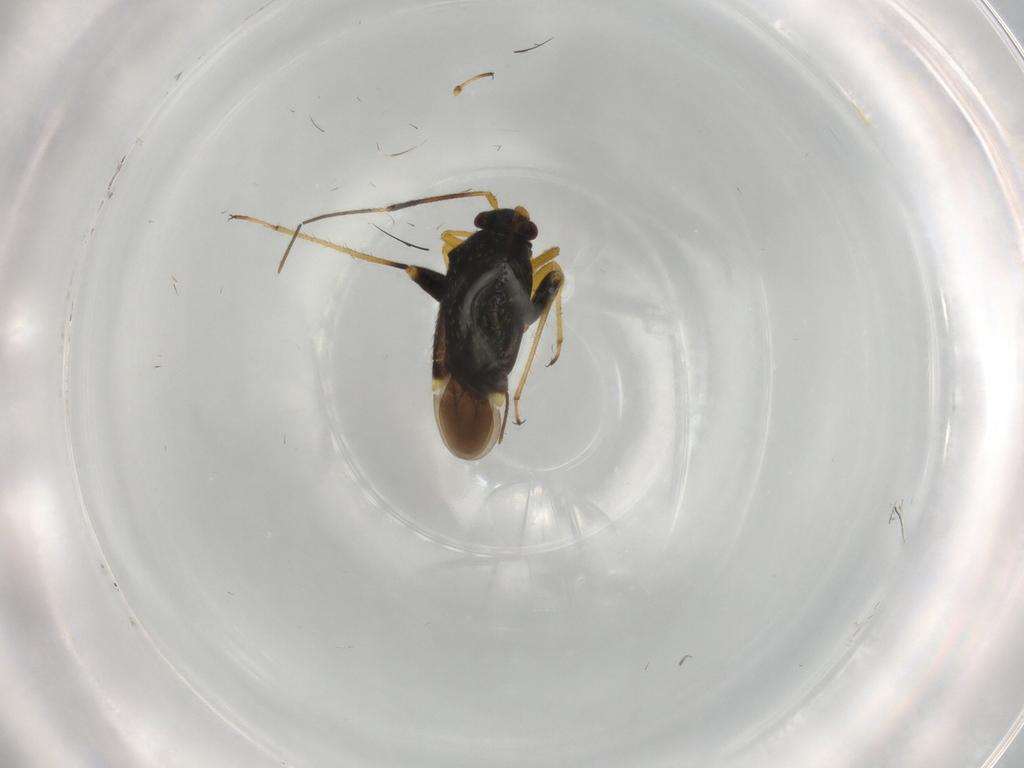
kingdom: Animalia
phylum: Arthropoda
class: Insecta
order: Hemiptera
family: Miridae
